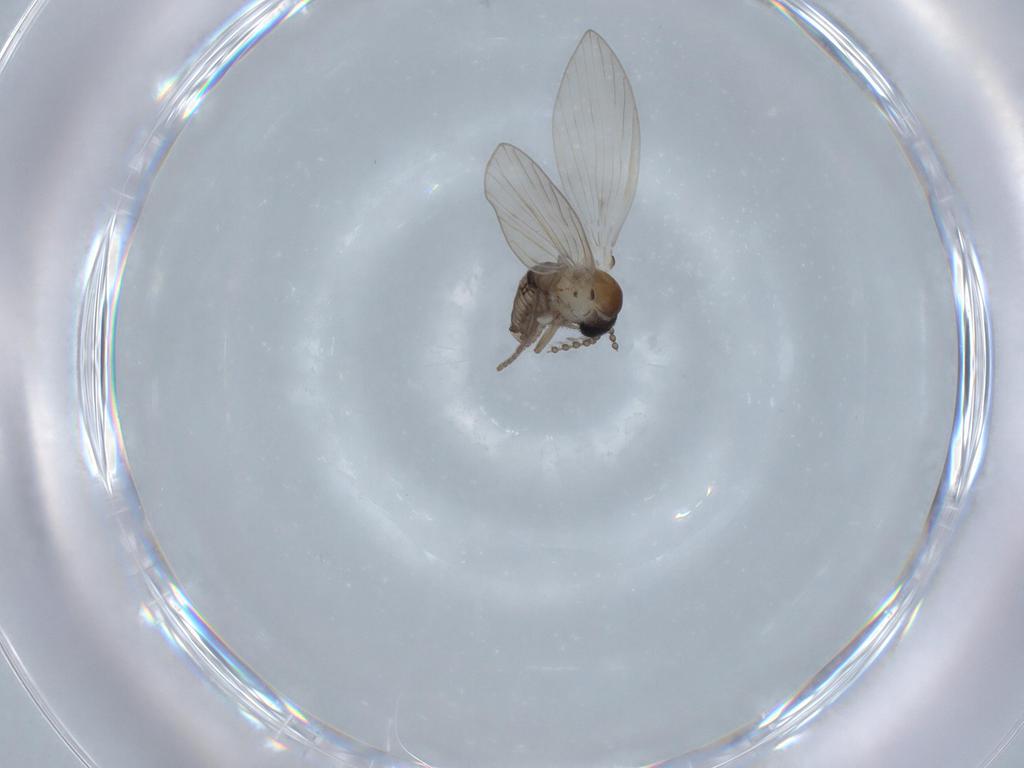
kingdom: Animalia
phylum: Arthropoda
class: Insecta
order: Diptera
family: Psychodidae
